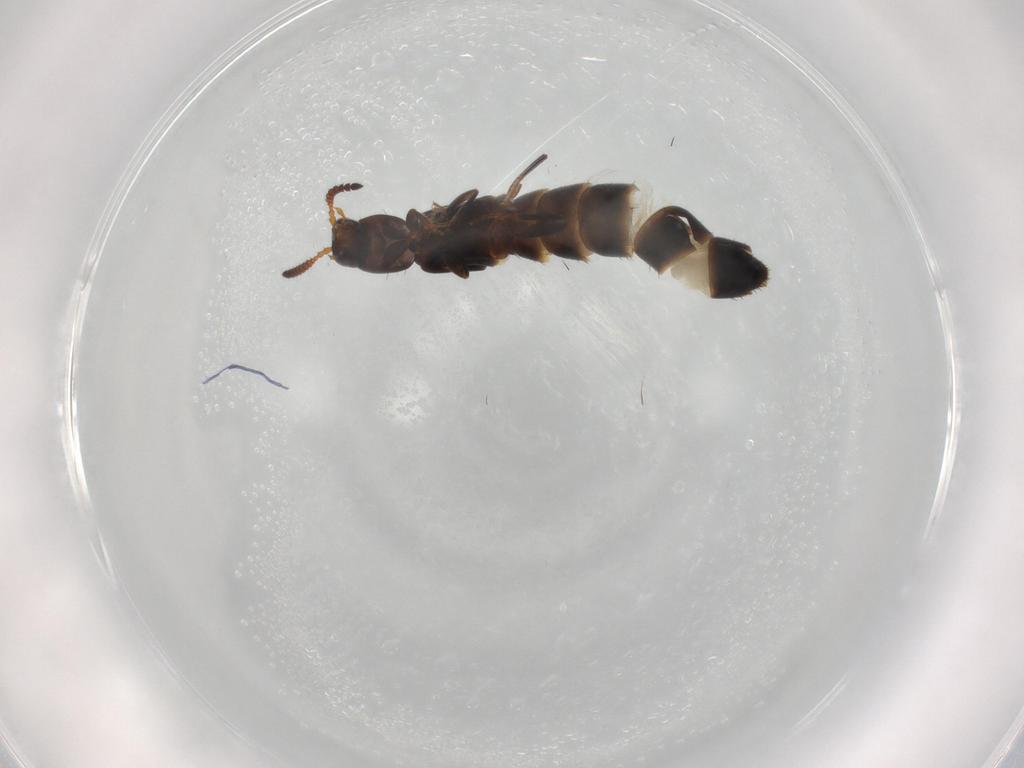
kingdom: Animalia
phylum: Arthropoda
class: Insecta
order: Coleoptera
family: Staphylinidae
